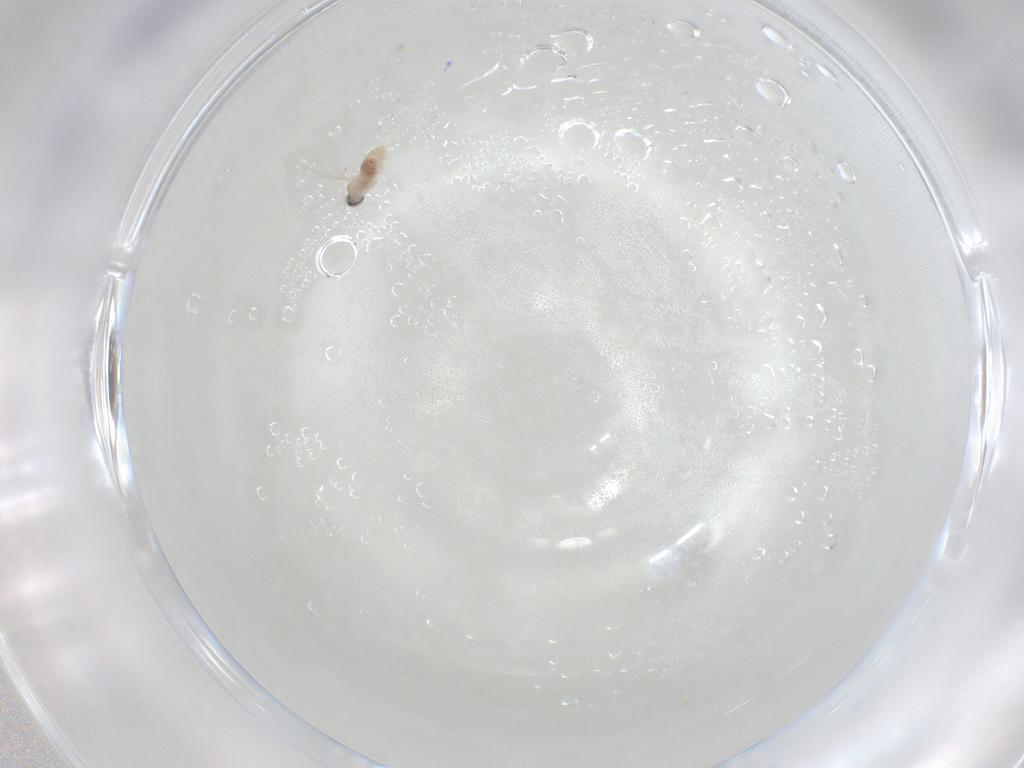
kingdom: Animalia
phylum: Arthropoda
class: Insecta
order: Diptera
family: Cecidomyiidae
